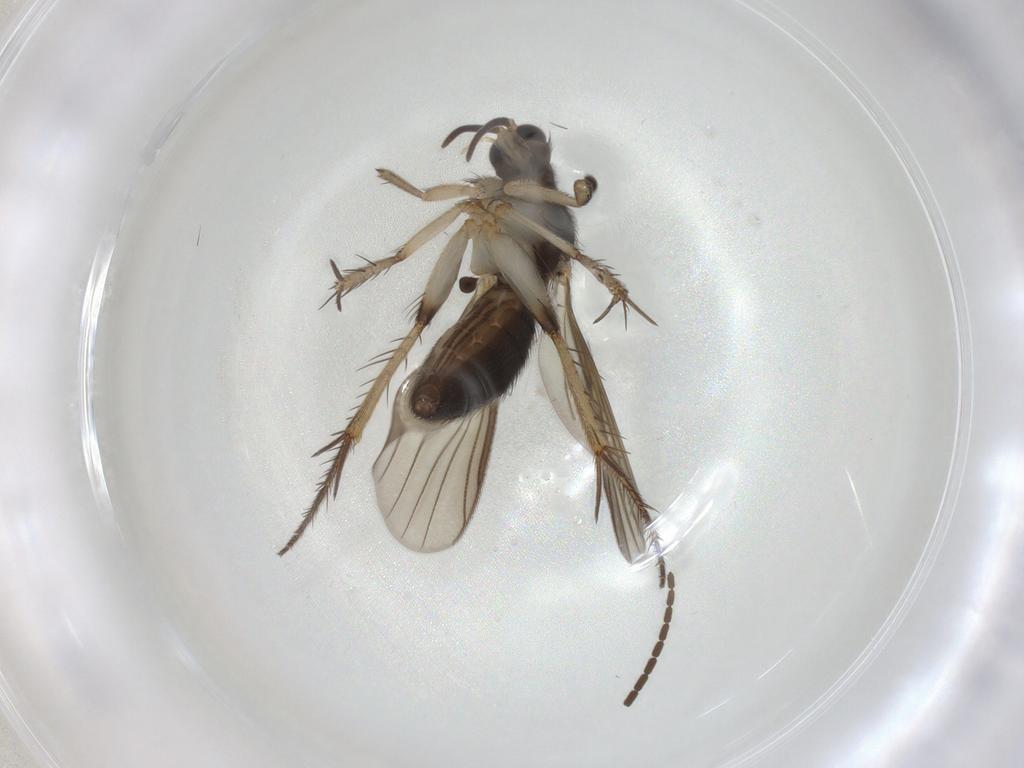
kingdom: Animalia
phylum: Arthropoda
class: Insecta
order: Diptera
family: Mycetophilidae
